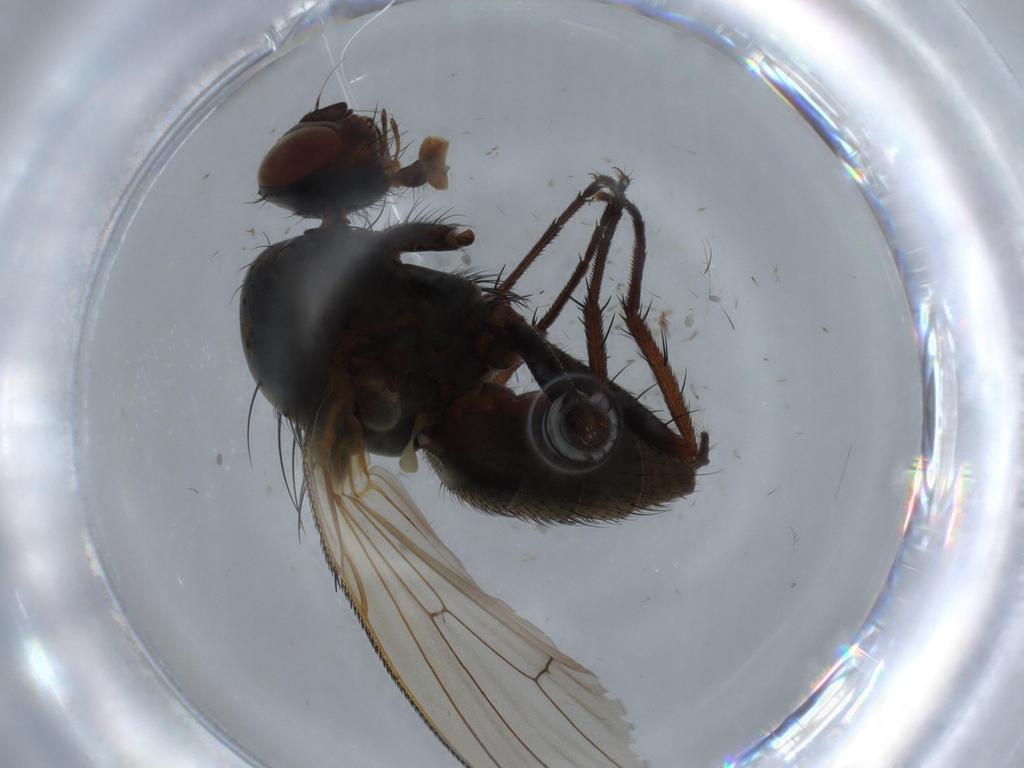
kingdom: Animalia
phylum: Arthropoda
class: Insecta
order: Diptera
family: Anthomyiidae
